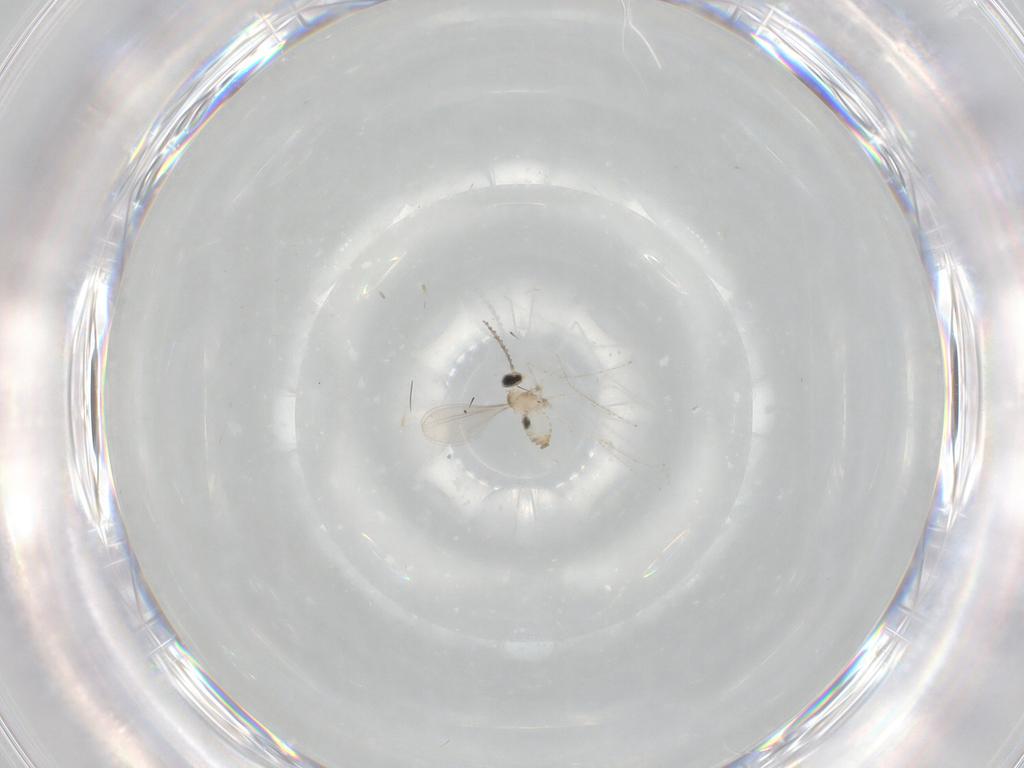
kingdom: Animalia
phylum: Arthropoda
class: Insecta
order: Diptera
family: Cecidomyiidae
